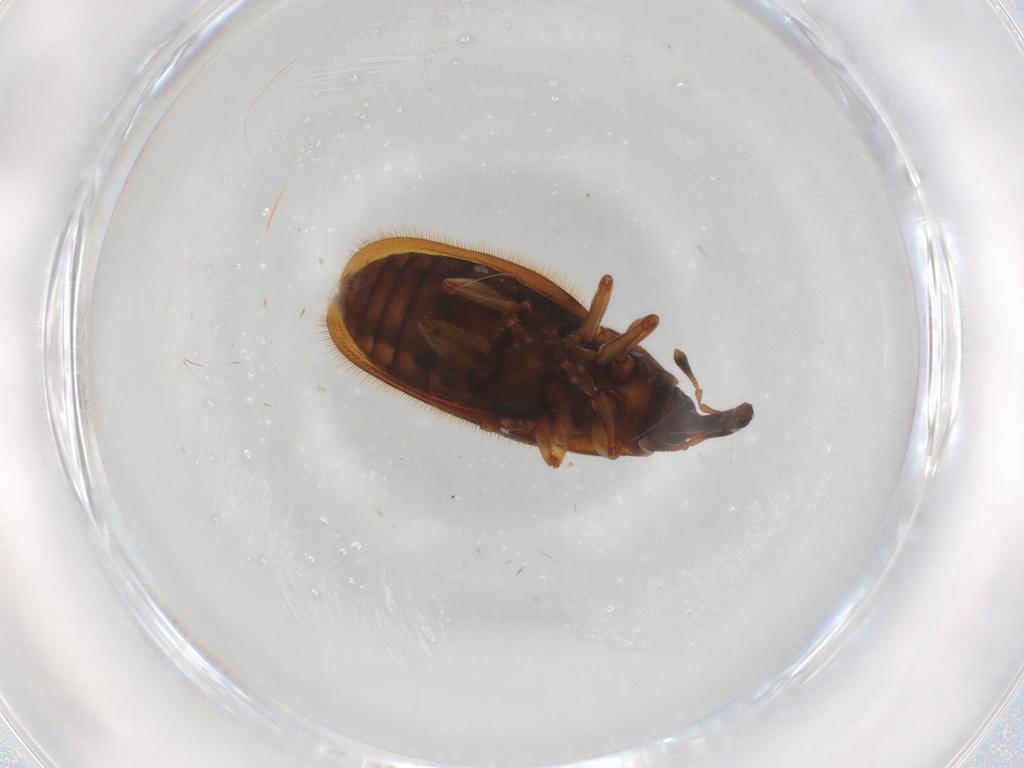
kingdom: Animalia
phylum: Arthropoda
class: Insecta
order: Coleoptera
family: Curculionidae
